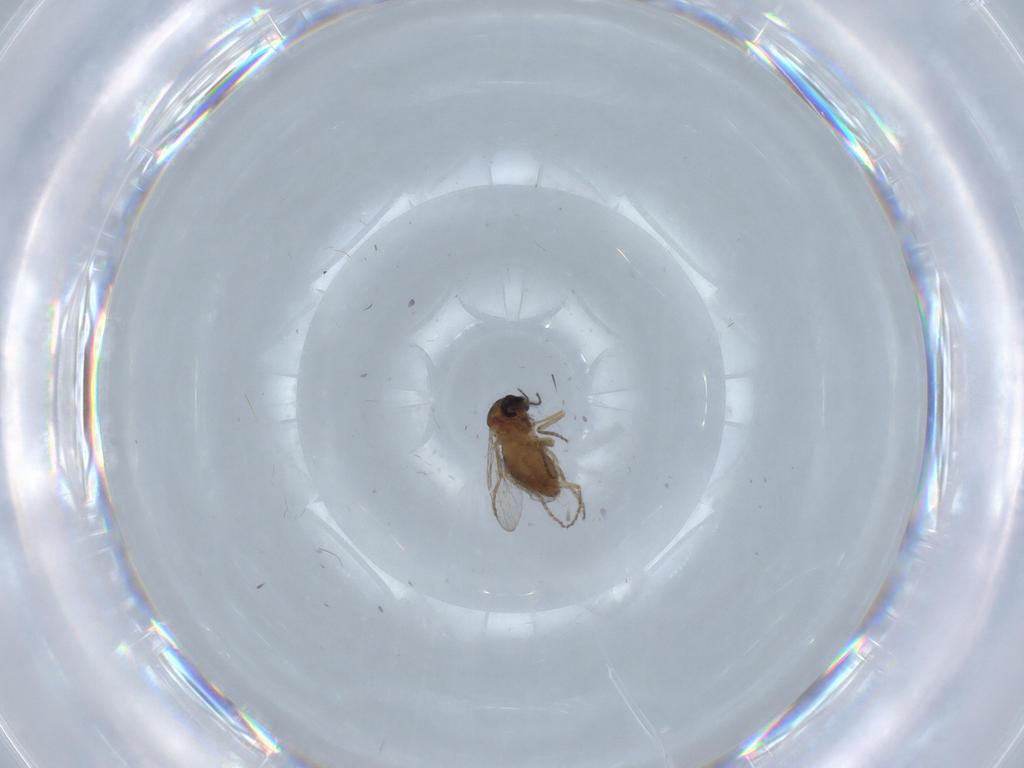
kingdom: Animalia
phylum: Arthropoda
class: Insecta
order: Diptera
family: Ceratopogonidae
